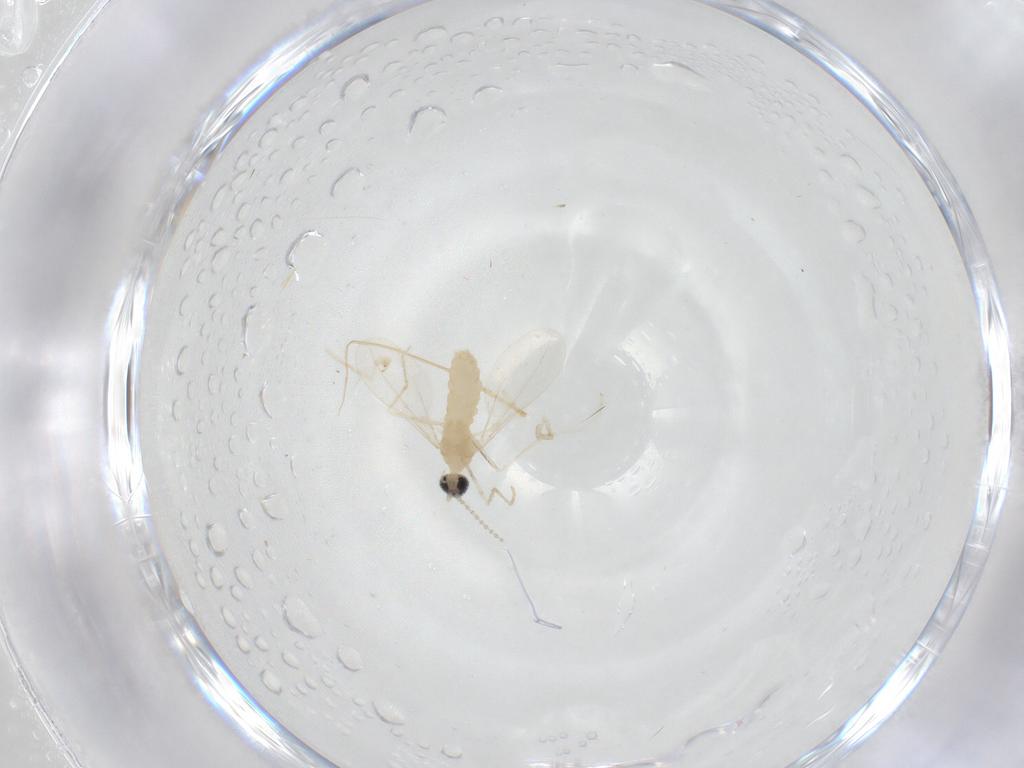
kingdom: Animalia
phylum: Arthropoda
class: Insecta
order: Diptera
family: Cecidomyiidae
